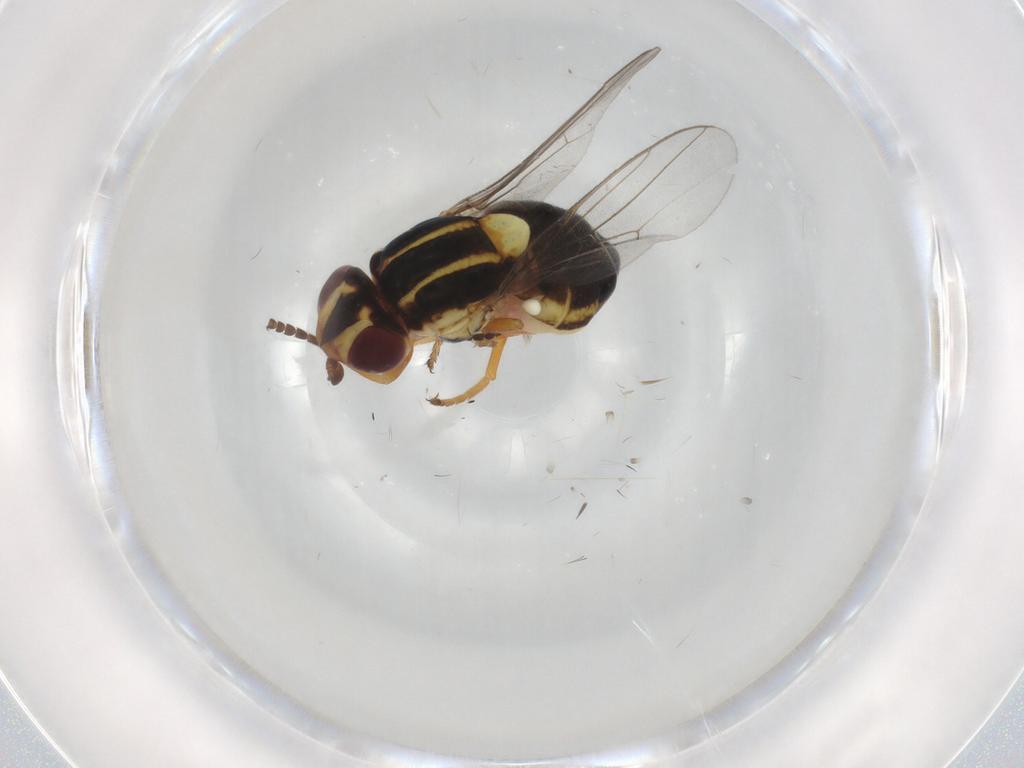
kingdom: Animalia
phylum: Arthropoda
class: Insecta
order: Diptera
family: Chloropidae
